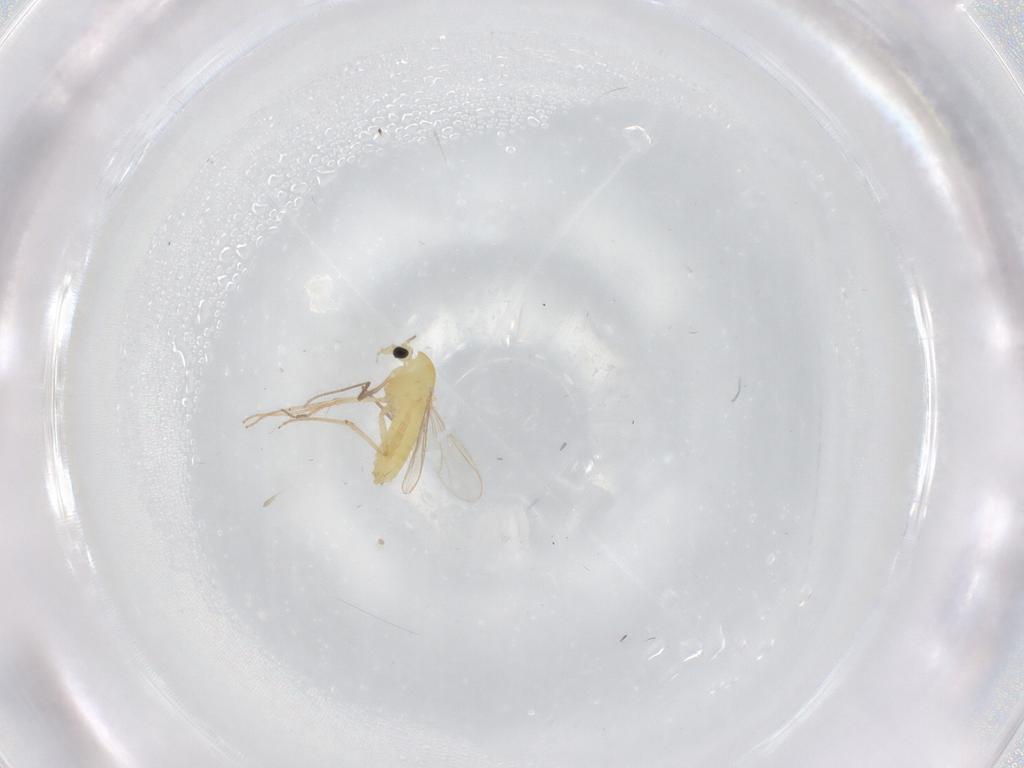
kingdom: Animalia
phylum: Arthropoda
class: Insecta
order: Diptera
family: Chironomidae
